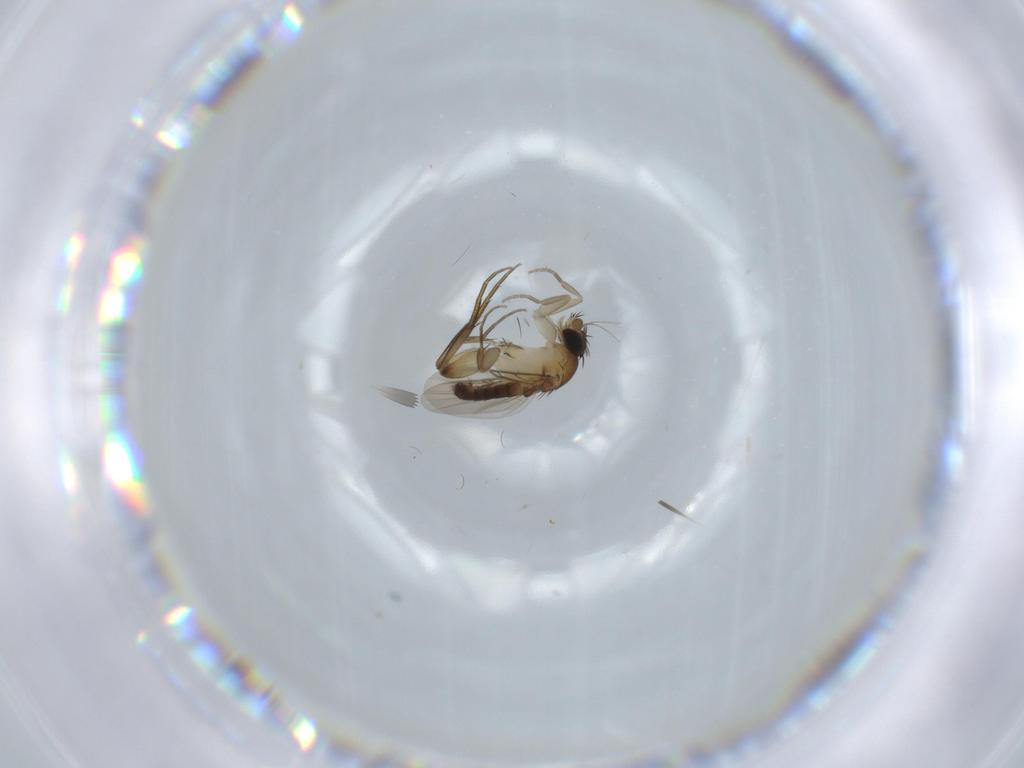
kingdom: Animalia
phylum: Arthropoda
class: Insecta
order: Diptera
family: Phoridae
